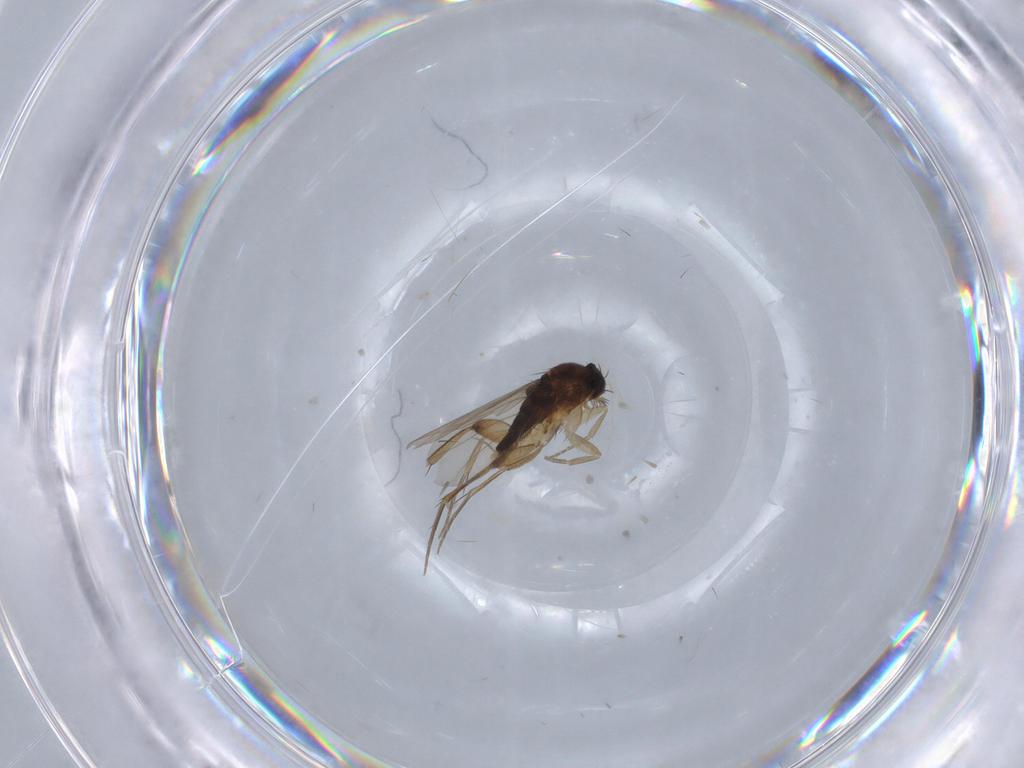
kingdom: Animalia
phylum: Arthropoda
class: Insecta
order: Diptera
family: Phoridae
